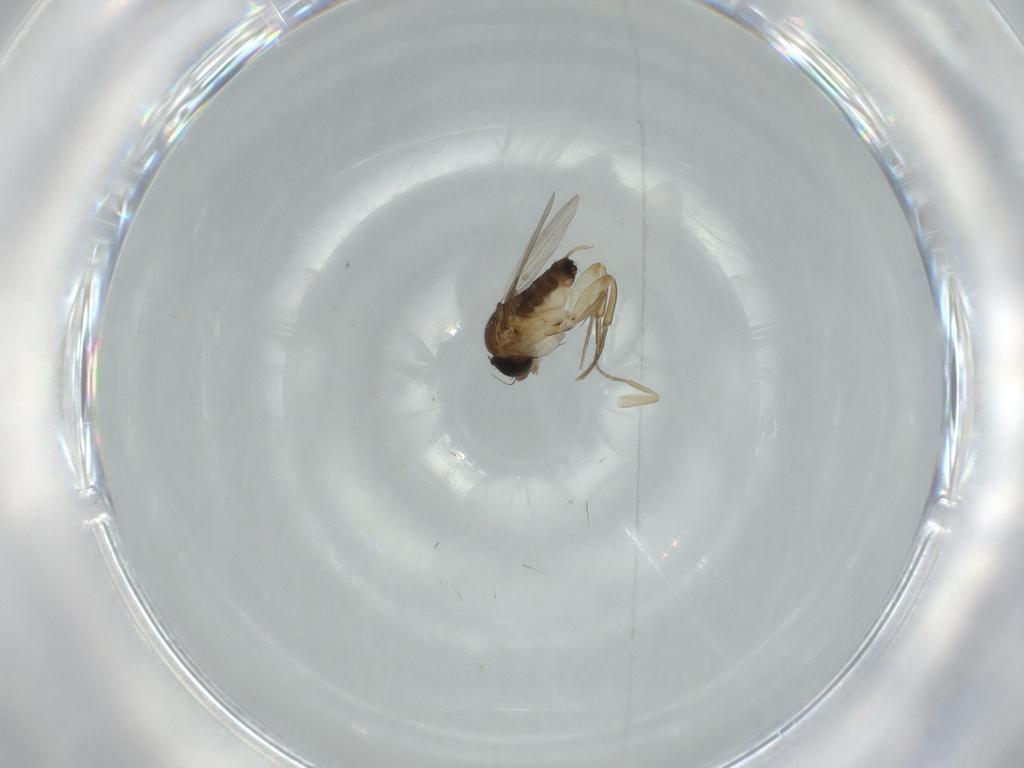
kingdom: Animalia
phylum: Arthropoda
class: Insecta
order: Diptera
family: Phoridae
